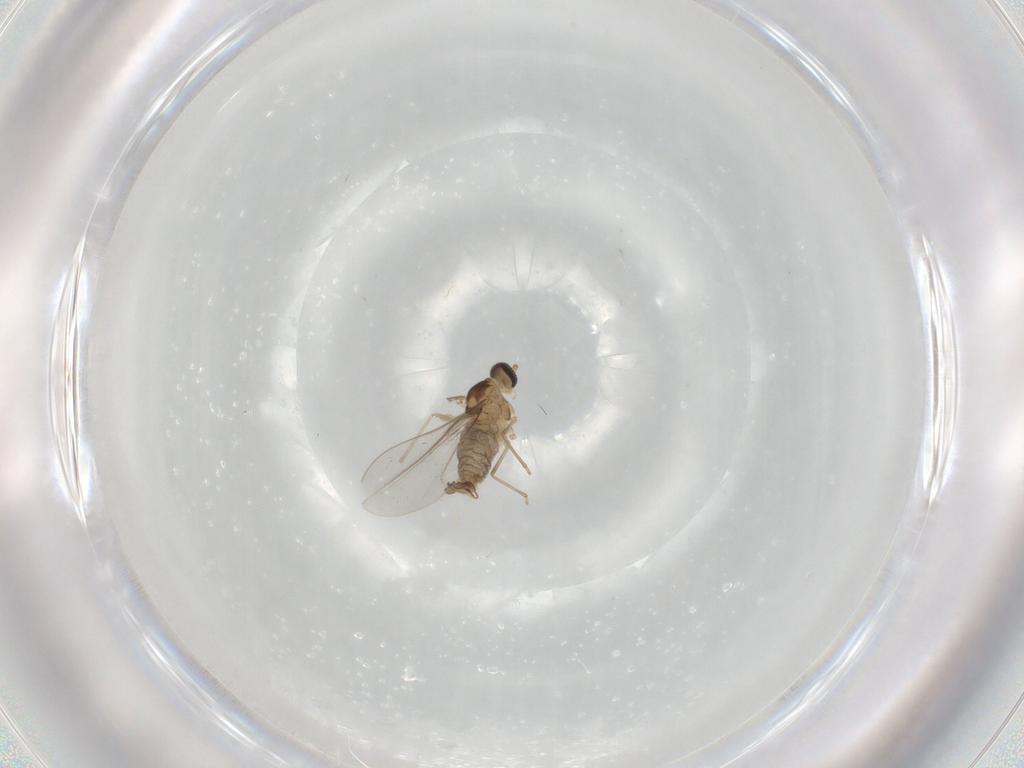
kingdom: Animalia
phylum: Arthropoda
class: Insecta
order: Diptera
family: Cecidomyiidae
